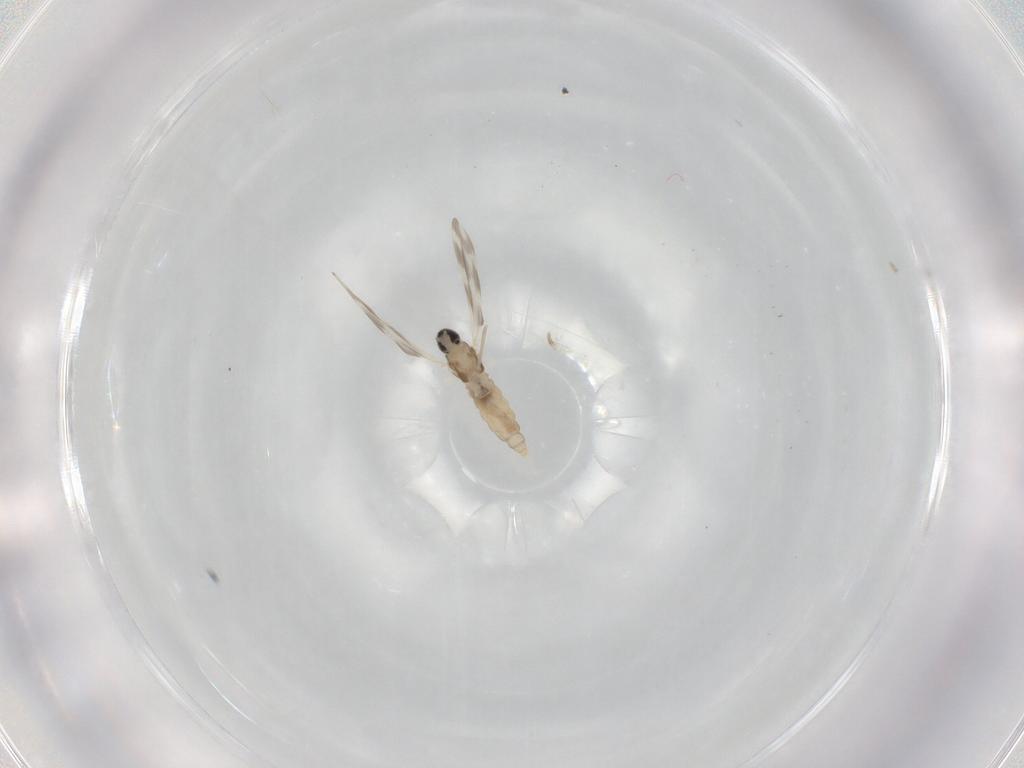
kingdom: Animalia
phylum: Arthropoda
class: Insecta
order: Diptera
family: Cecidomyiidae
